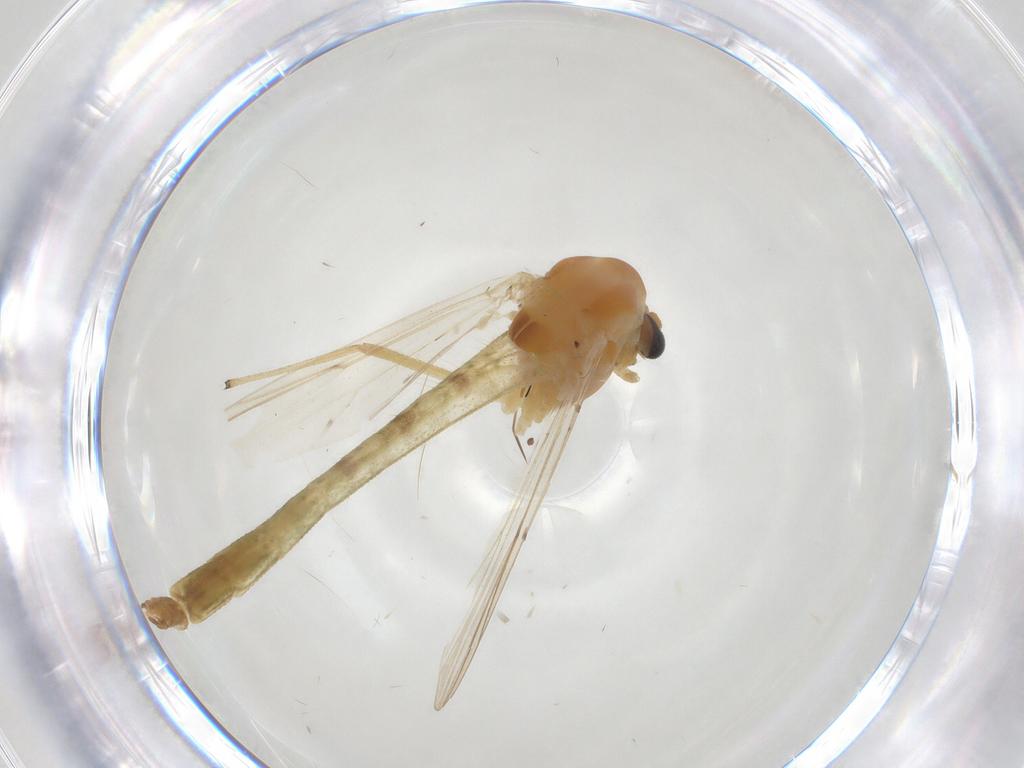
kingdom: Animalia
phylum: Arthropoda
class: Insecta
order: Diptera
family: Chironomidae
